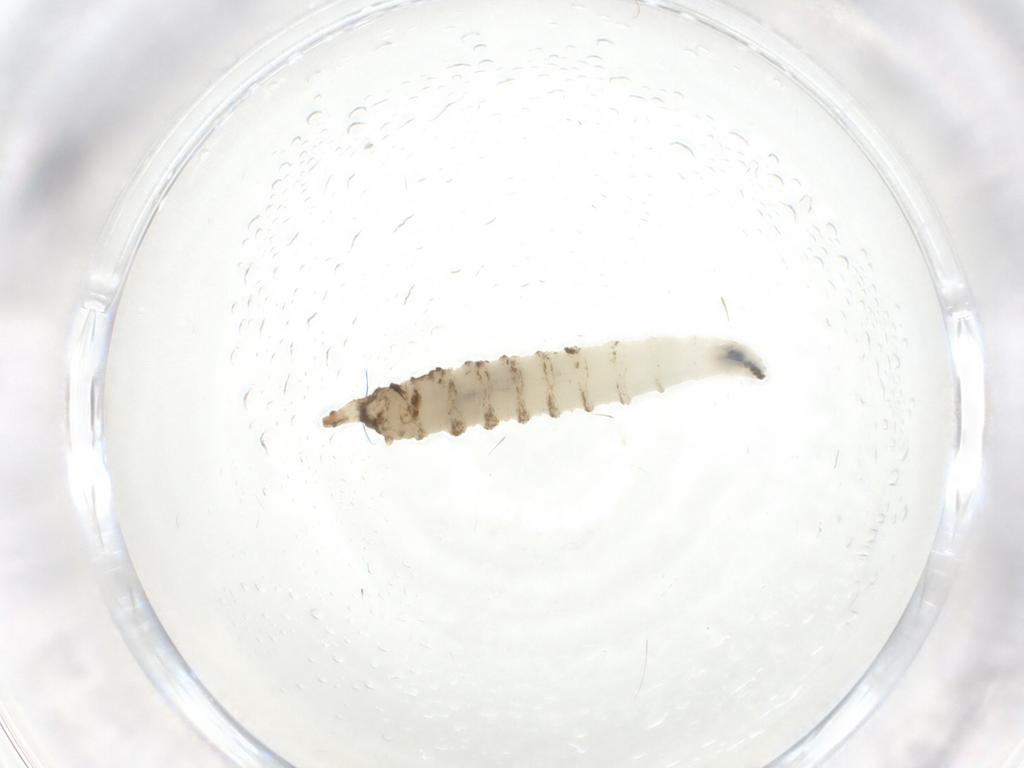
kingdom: Animalia
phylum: Arthropoda
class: Insecta
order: Diptera
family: Drosophilidae
